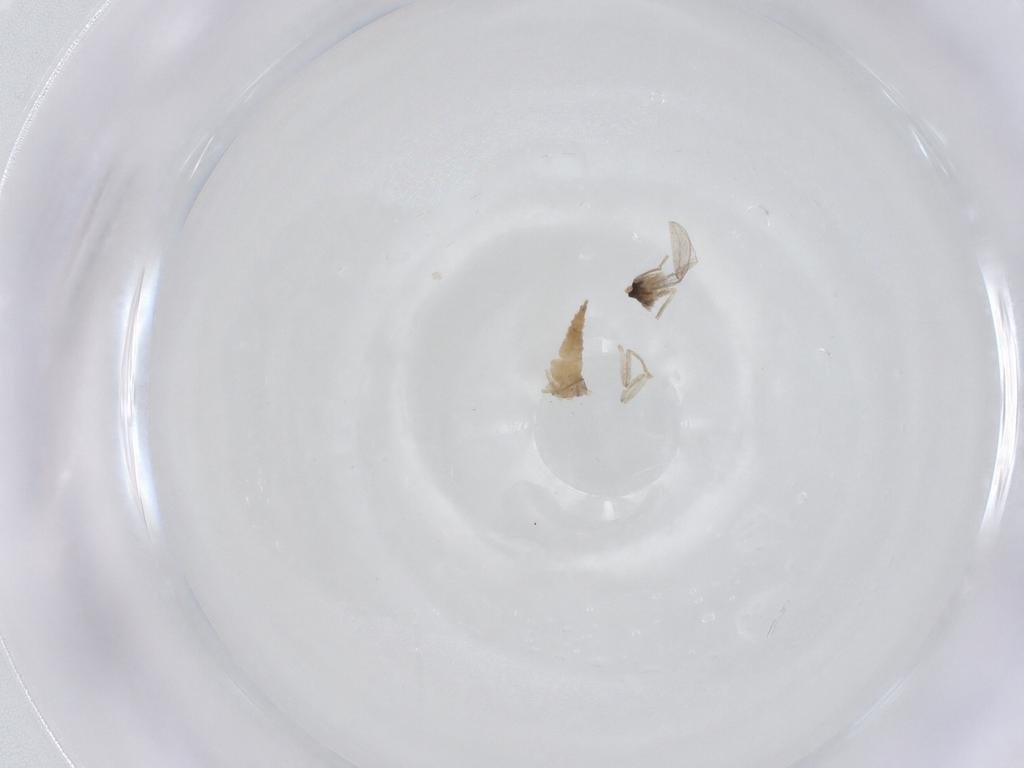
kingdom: Animalia
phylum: Arthropoda
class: Insecta
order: Diptera
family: Cecidomyiidae
